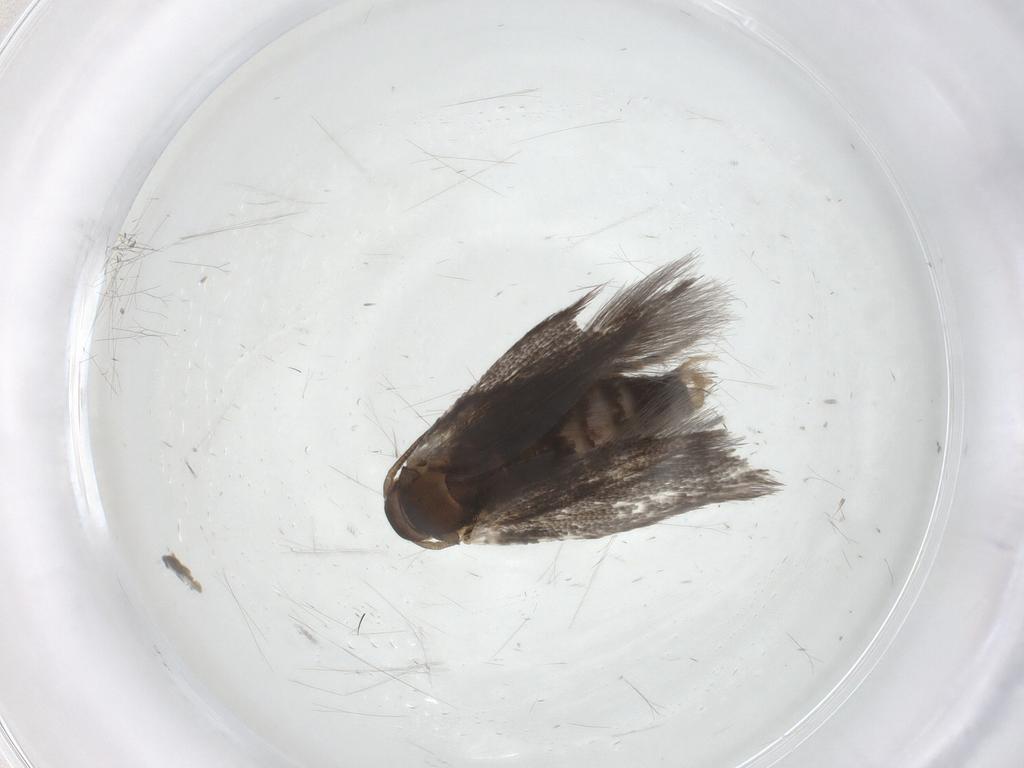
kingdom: Animalia
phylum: Arthropoda
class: Insecta
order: Lepidoptera
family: Elachistidae
